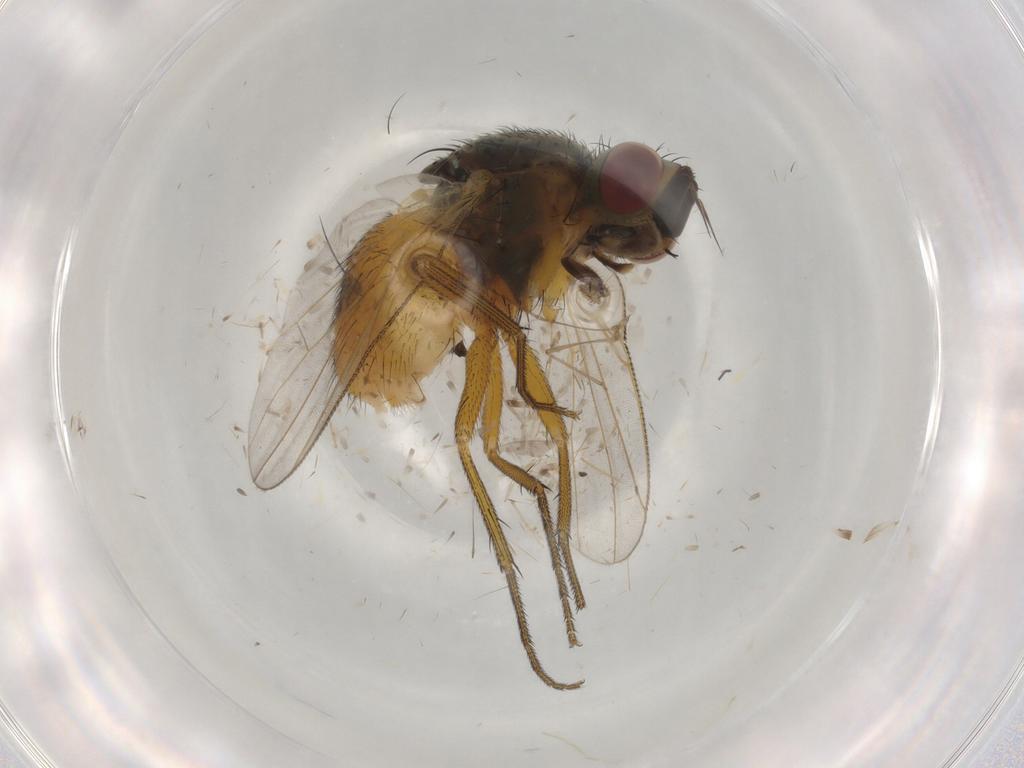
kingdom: Animalia
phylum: Arthropoda
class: Insecta
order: Diptera
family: Muscidae
